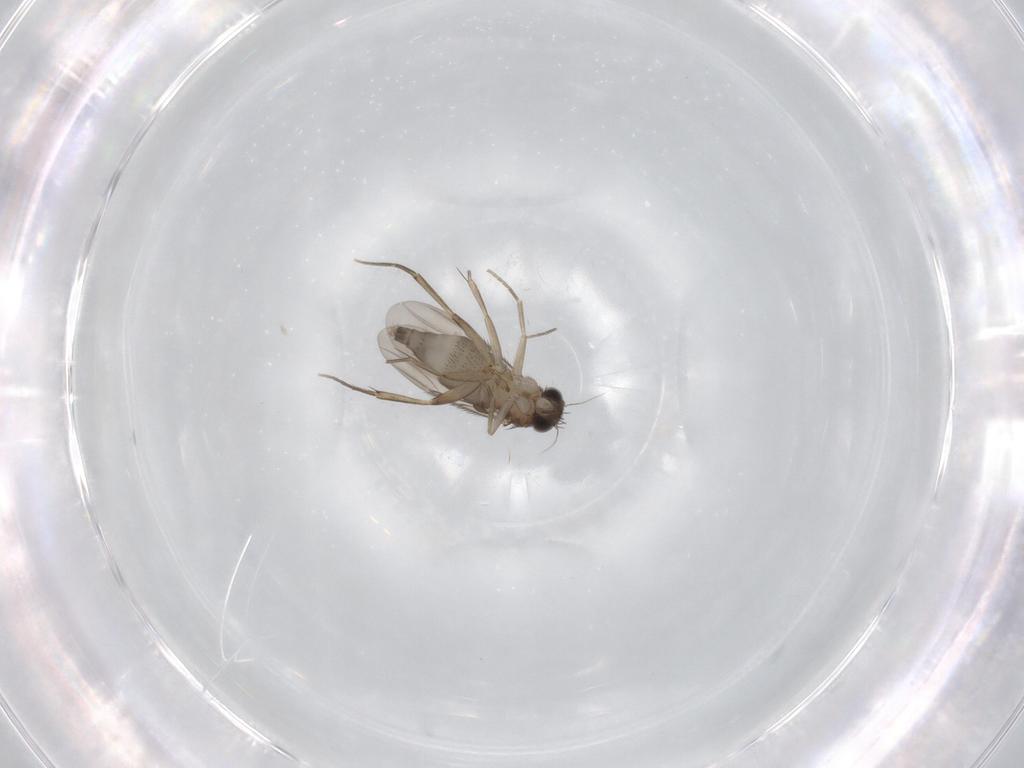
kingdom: Animalia
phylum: Arthropoda
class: Insecta
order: Diptera
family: Phoridae
